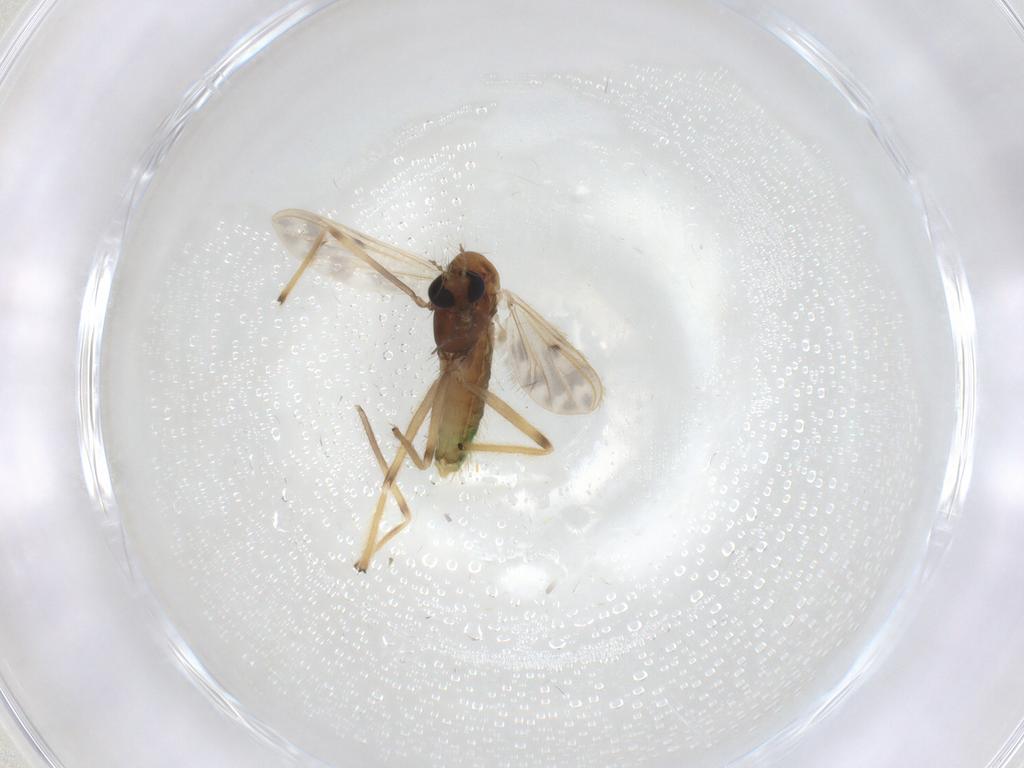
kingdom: Animalia
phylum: Arthropoda
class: Insecta
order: Diptera
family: Chironomidae
